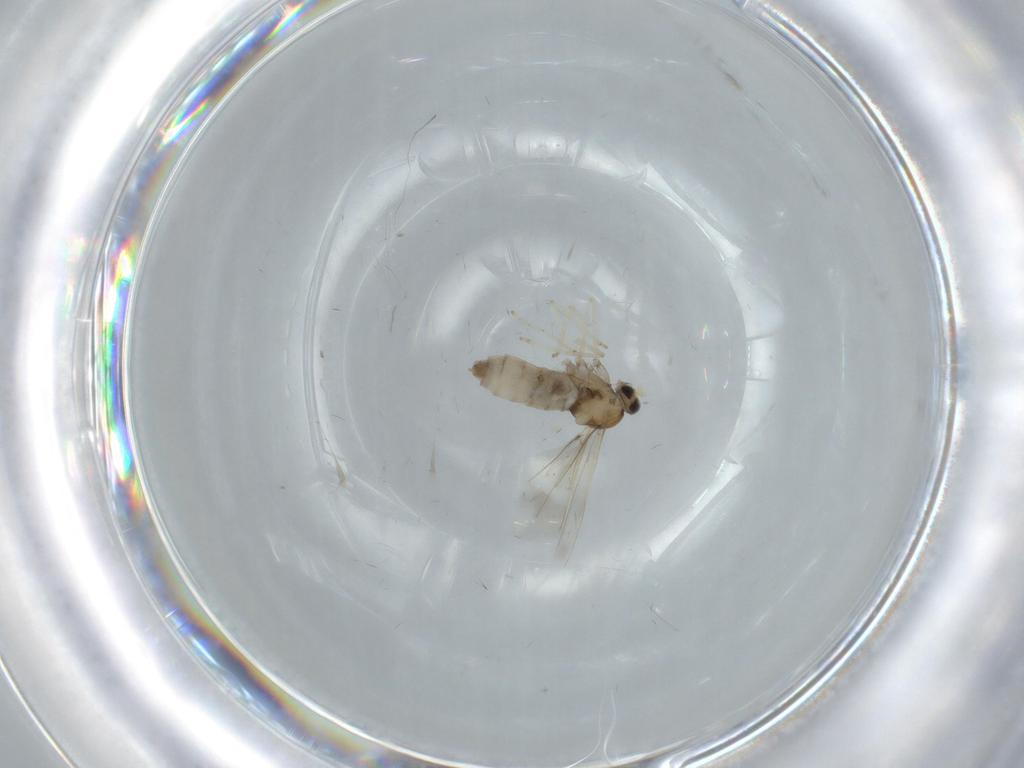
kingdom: Animalia
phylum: Arthropoda
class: Insecta
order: Diptera
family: Cecidomyiidae
